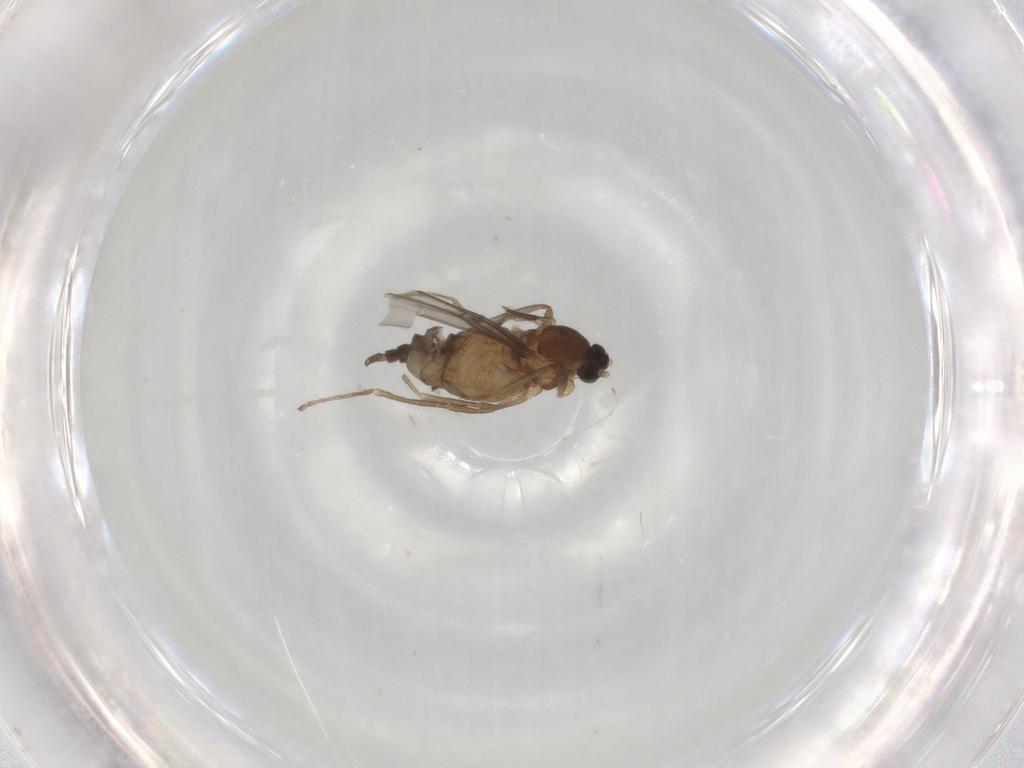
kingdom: Animalia
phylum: Arthropoda
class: Insecta
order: Diptera
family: Cecidomyiidae
